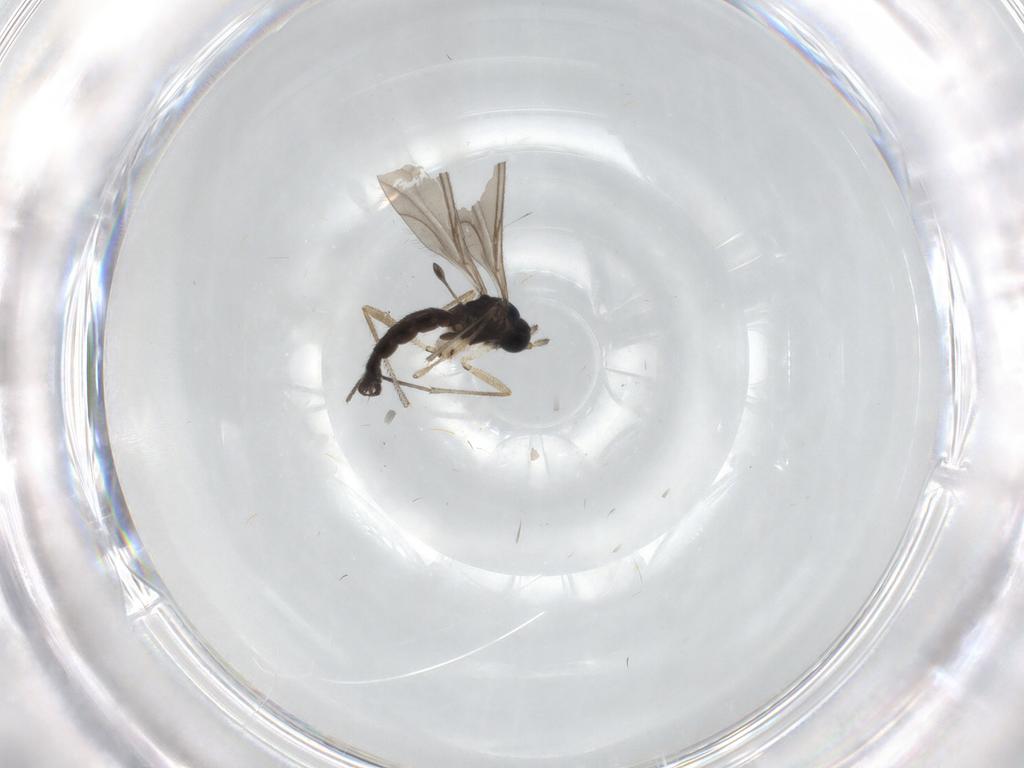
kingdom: Animalia
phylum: Arthropoda
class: Insecta
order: Diptera
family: Sciaridae
